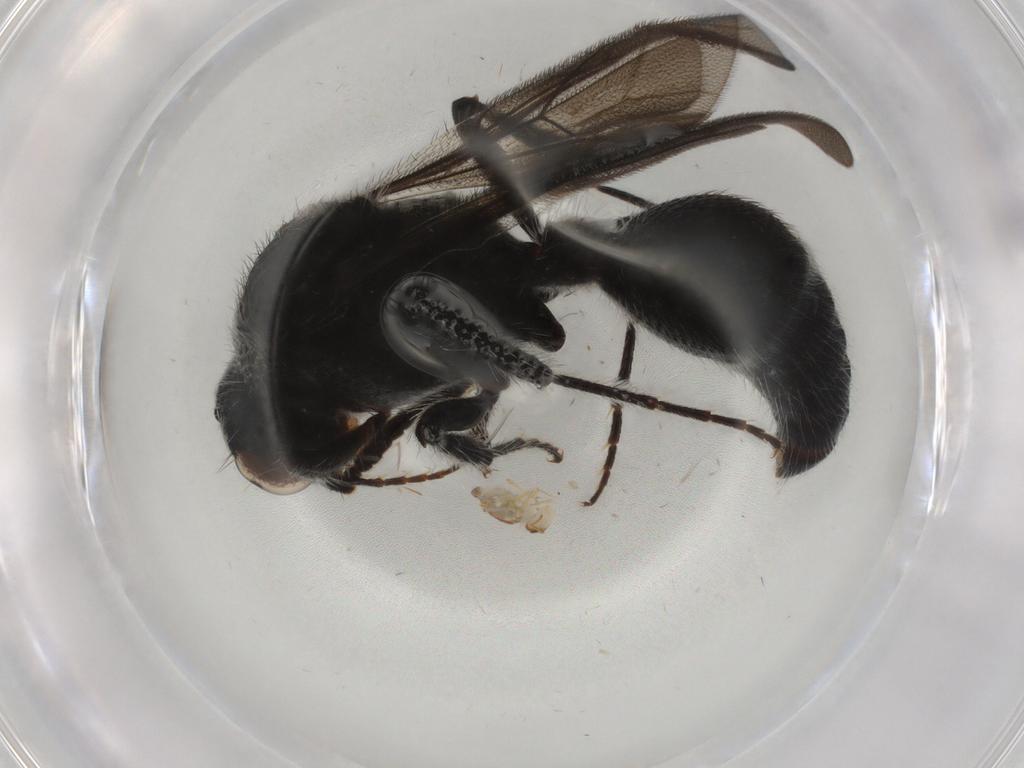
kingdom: Animalia
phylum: Arthropoda
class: Collembola
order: Symphypleona
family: Bourletiellidae
